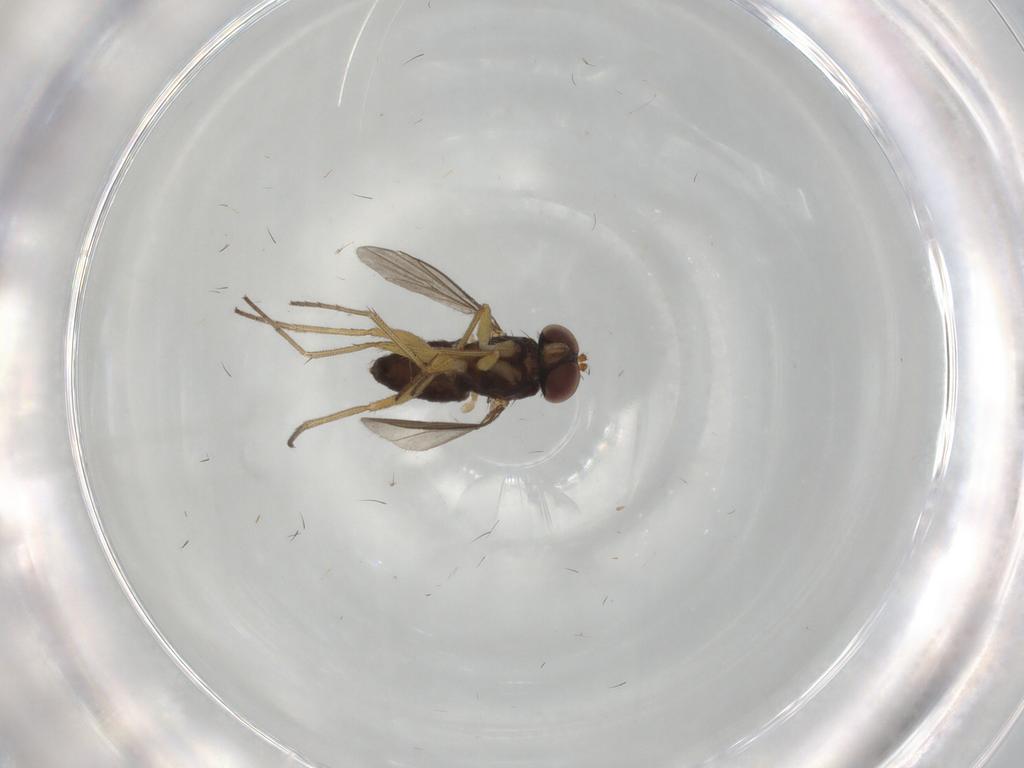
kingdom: Animalia
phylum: Arthropoda
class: Insecta
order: Diptera
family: Dolichopodidae
